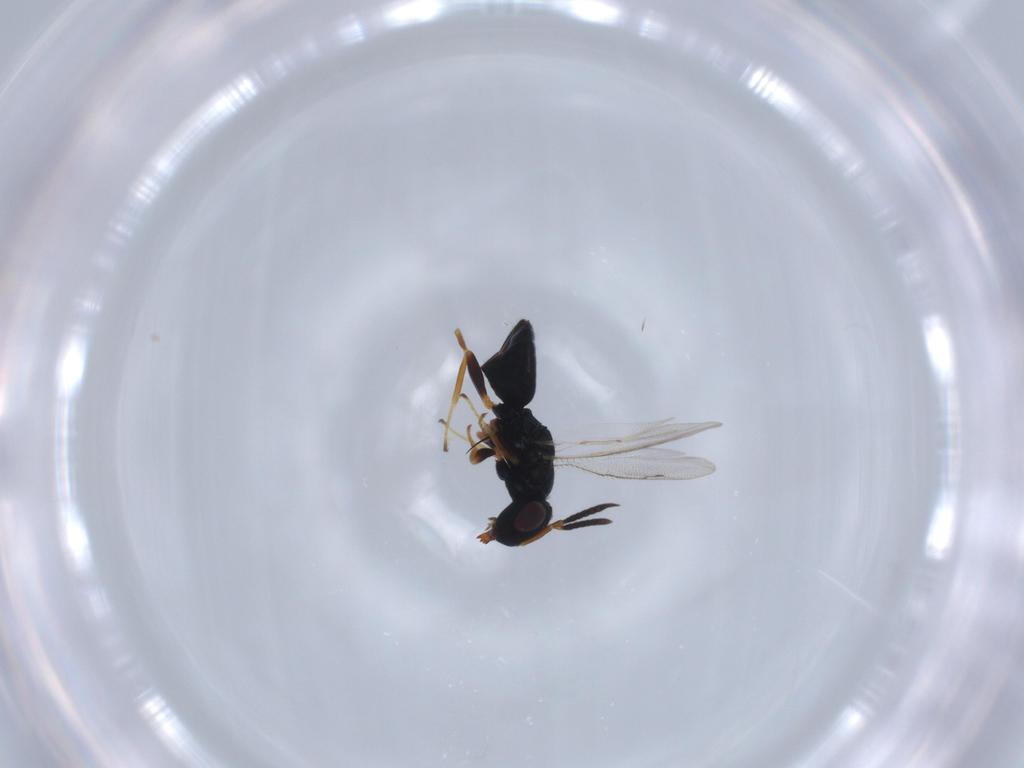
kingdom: Animalia
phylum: Arthropoda
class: Insecta
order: Hymenoptera
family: Pteromalidae
